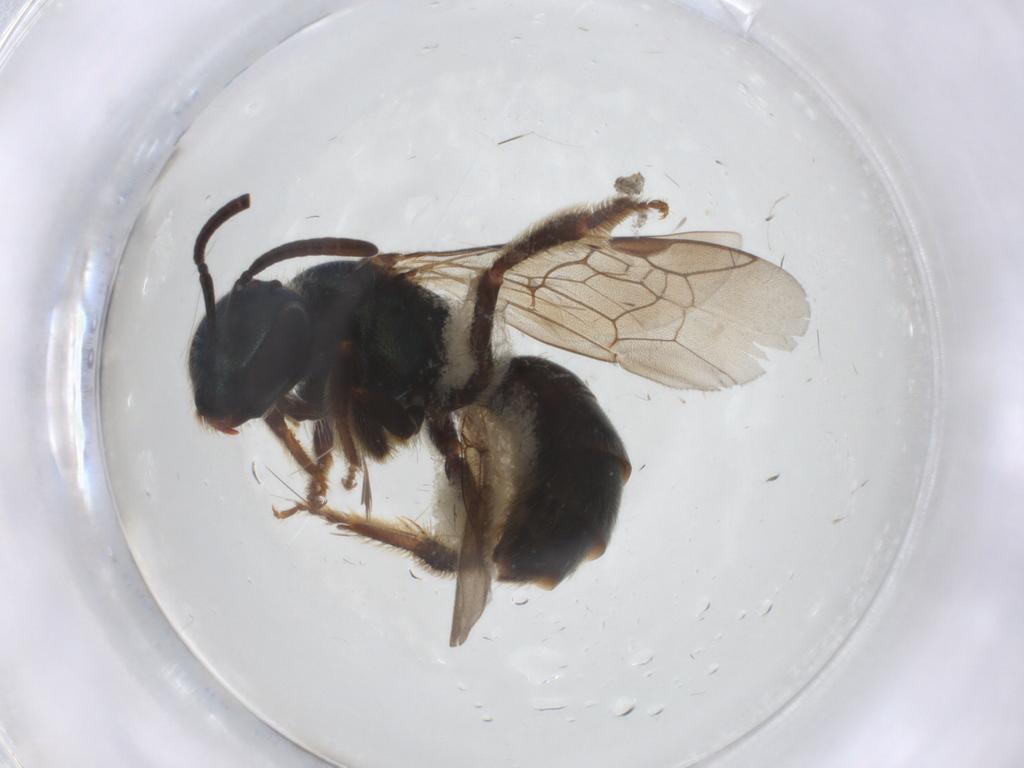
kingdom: Animalia
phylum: Arthropoda
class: Insecta
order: Hymenoptera
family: Halictidae
